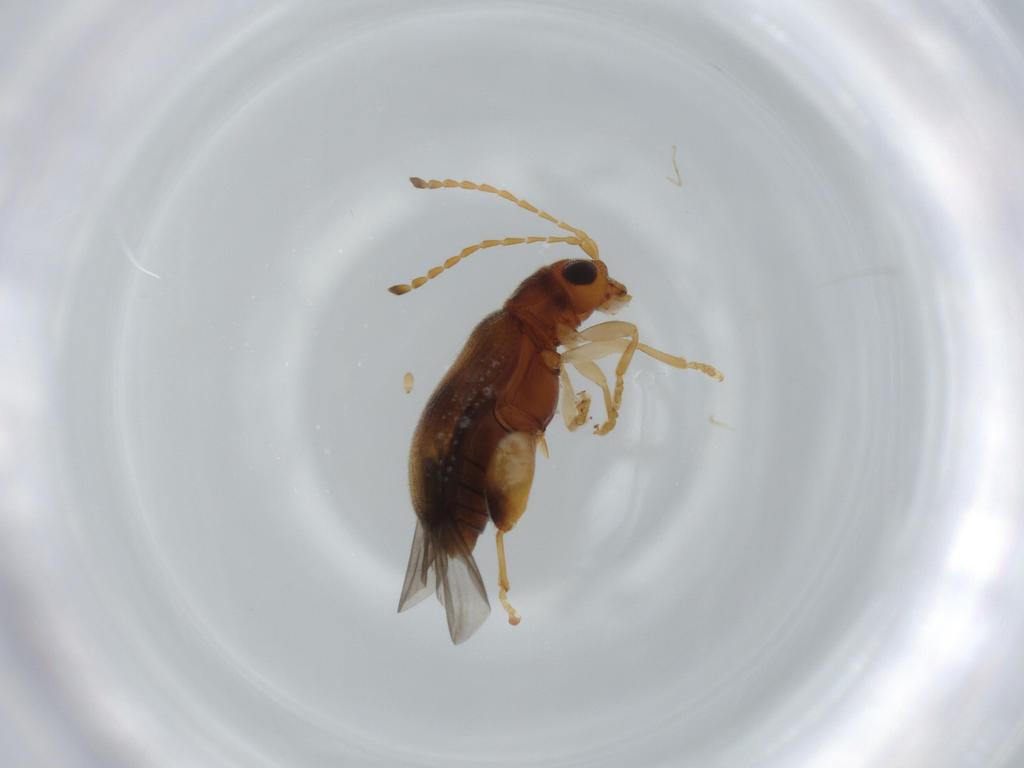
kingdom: Animalia
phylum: Arthropoda
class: Insecta
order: Coleoptera
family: Chrysomelidae
